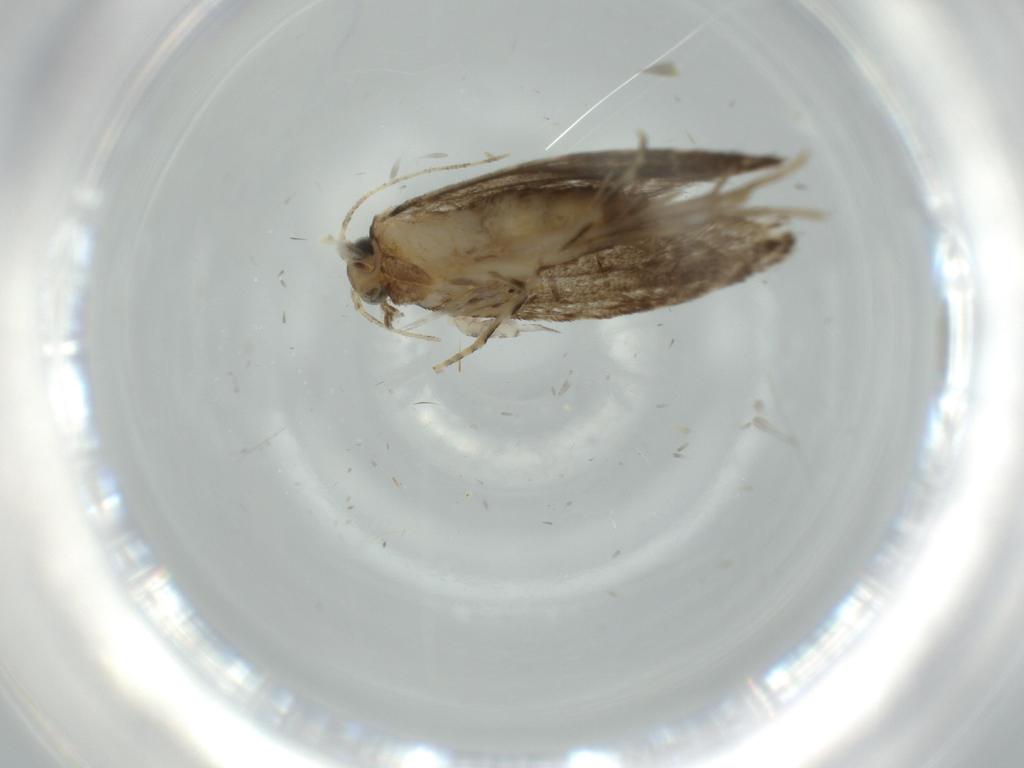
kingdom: Animalia
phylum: Arthropoda
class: Insecta
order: Lepidoptera
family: Tineidae
